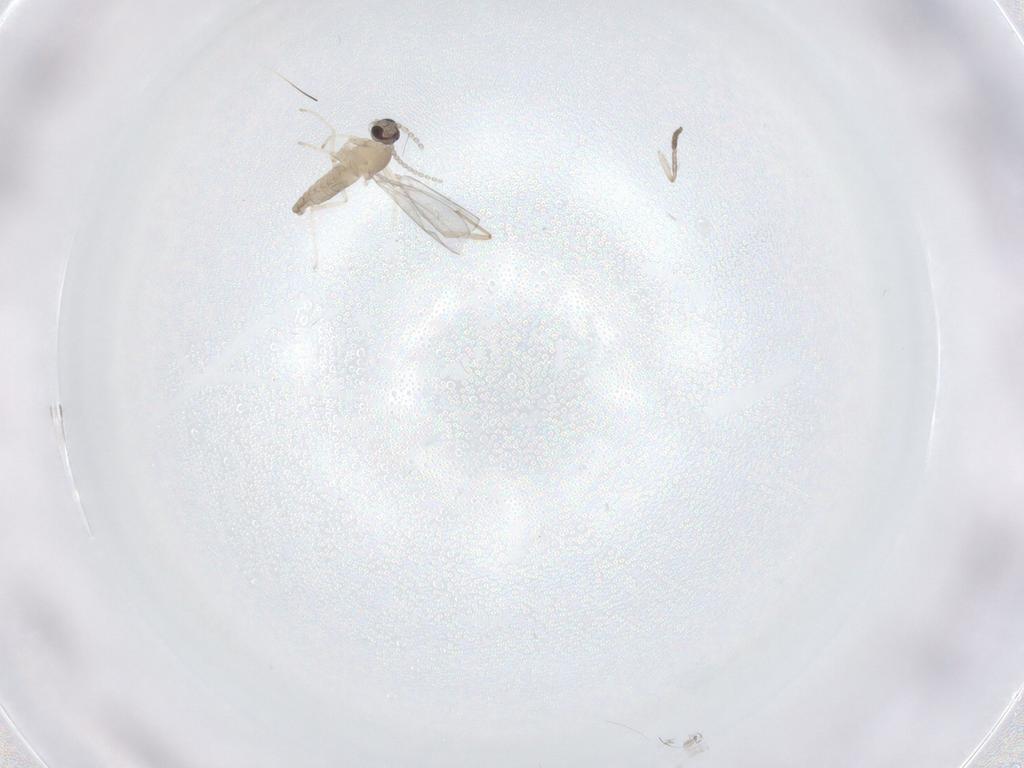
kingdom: Animalia
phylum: Arthropoda
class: Insecta
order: Diptera
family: Cecidomyiidae
